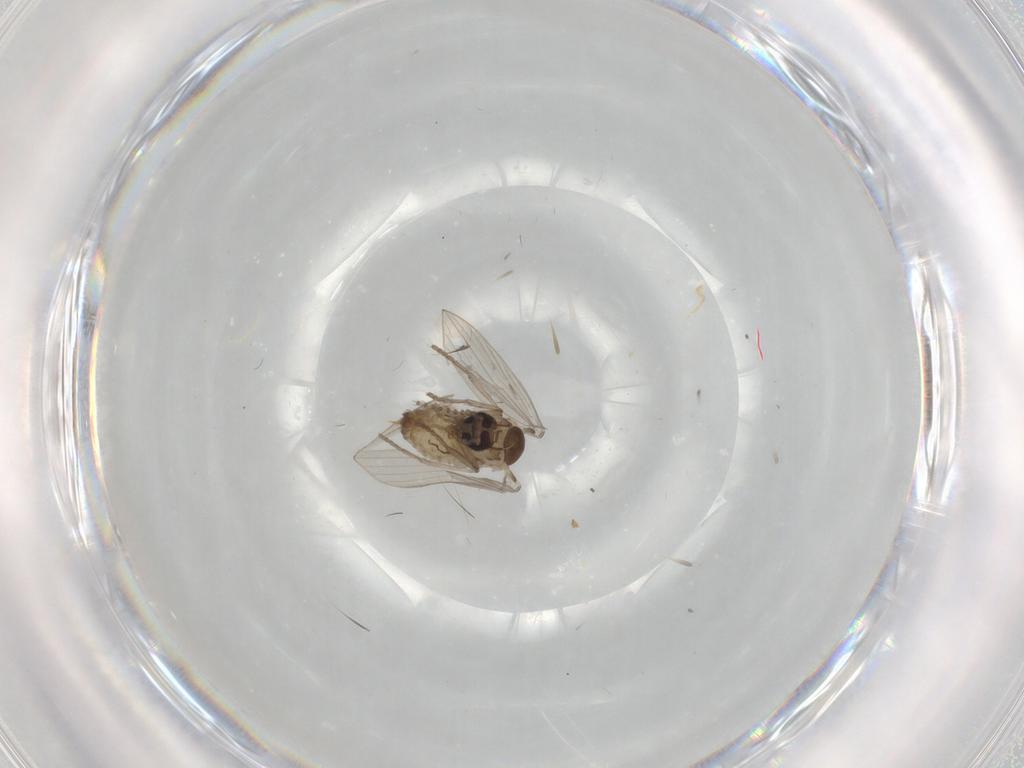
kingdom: Animalia
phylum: Arthropoda
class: Insecta
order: Diptera
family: Psychodidae
